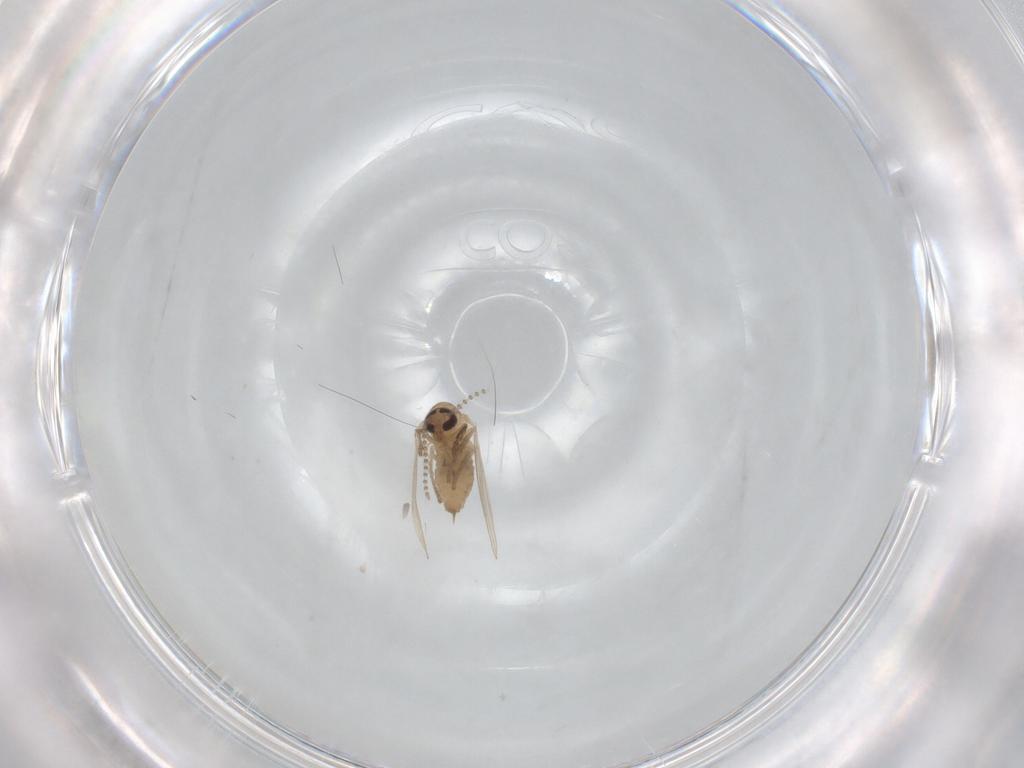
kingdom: Animalia
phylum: Arthropoda
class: Insecta
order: Diptera
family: Psychodidae
